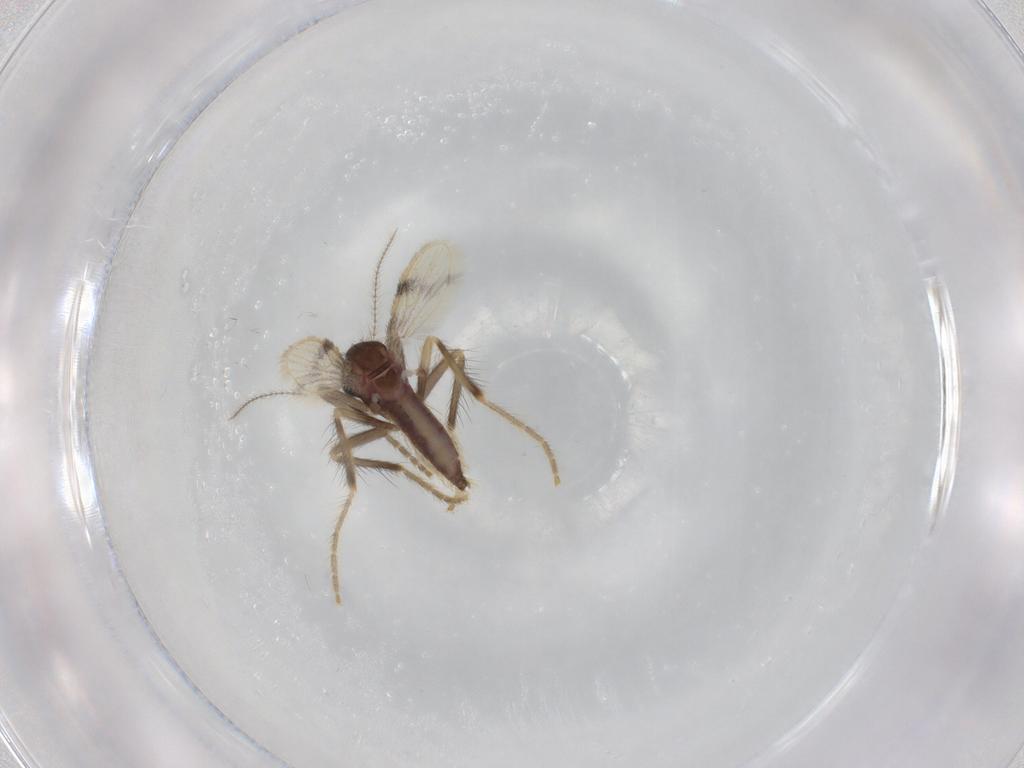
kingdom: Animalia
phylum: Arthropoda
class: Insecta
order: Diptera
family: Corethrellidae
